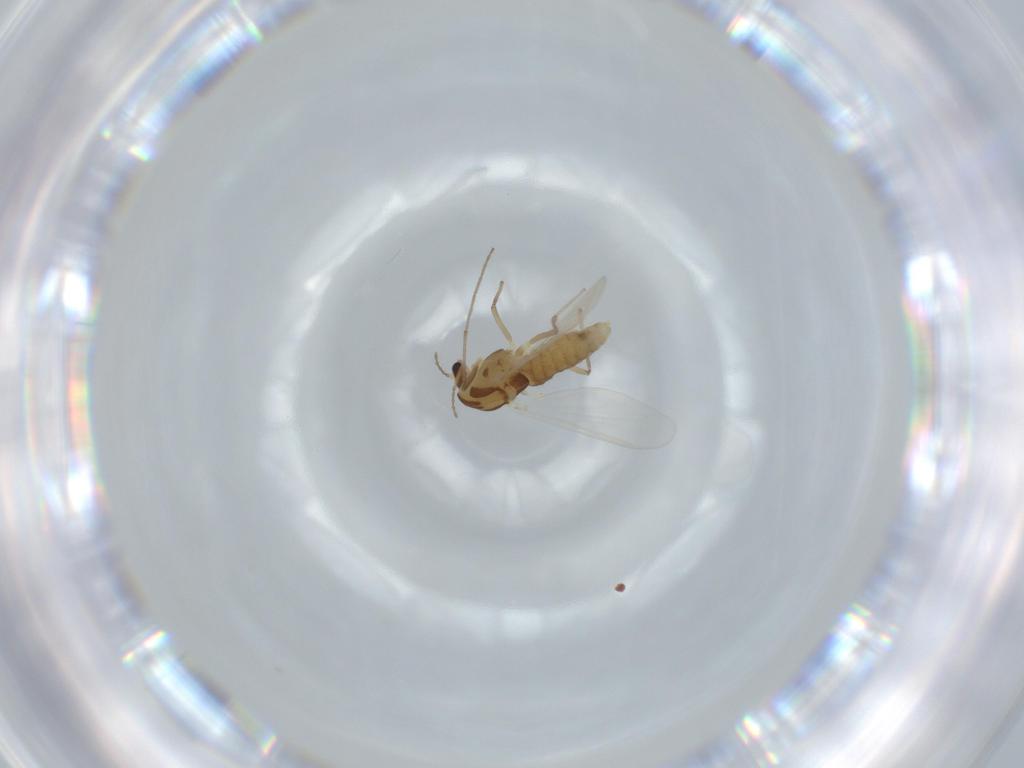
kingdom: Animalia
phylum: Arthropoda
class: Insecta
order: Diptera
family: Chironomidae
